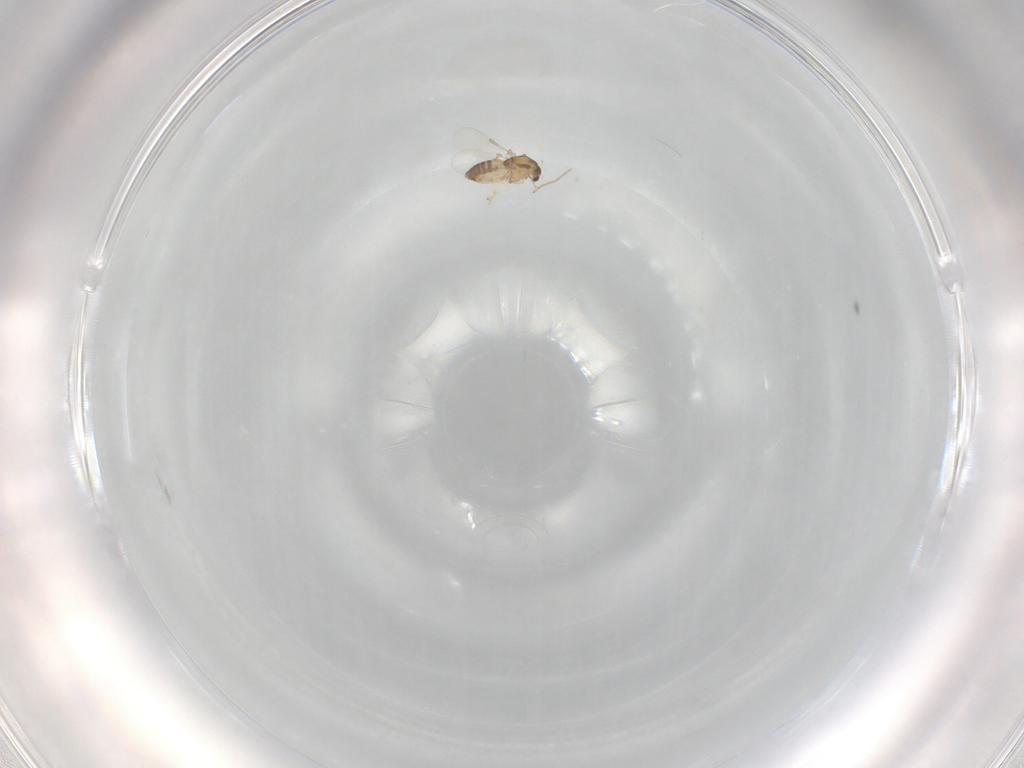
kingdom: Animalia
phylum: Arthropoda
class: Insecta
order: Diptera
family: Chironomidae
